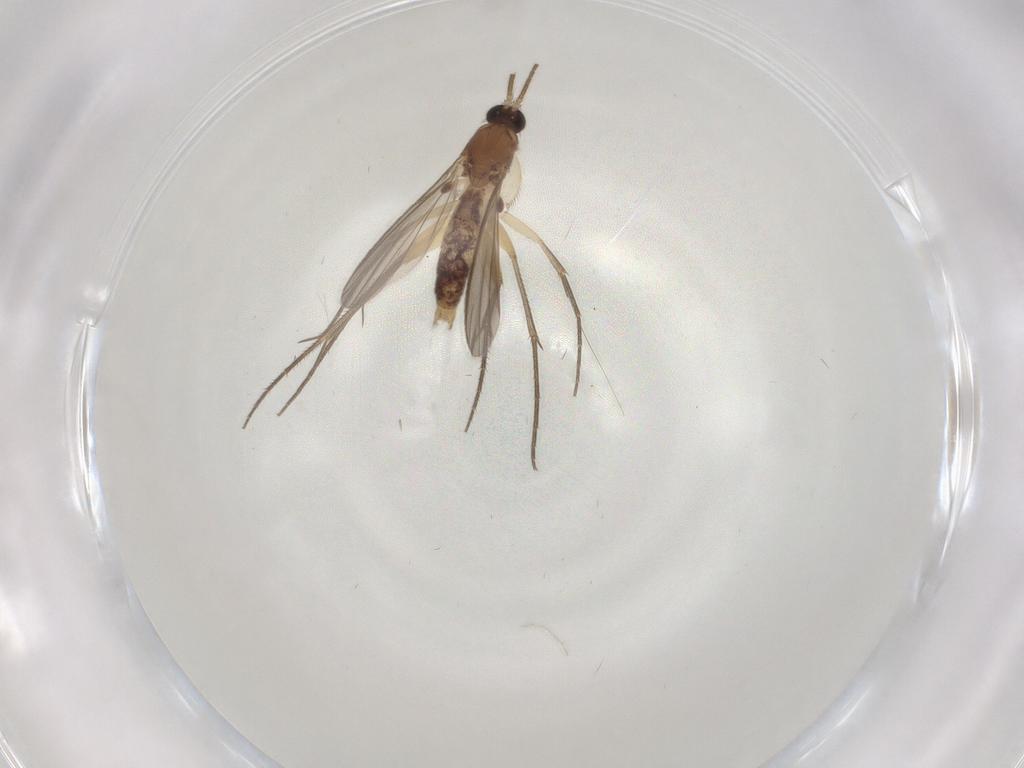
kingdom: Animalia
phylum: Arthropoda
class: Insecta
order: Diptera
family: Mycetophilidae
